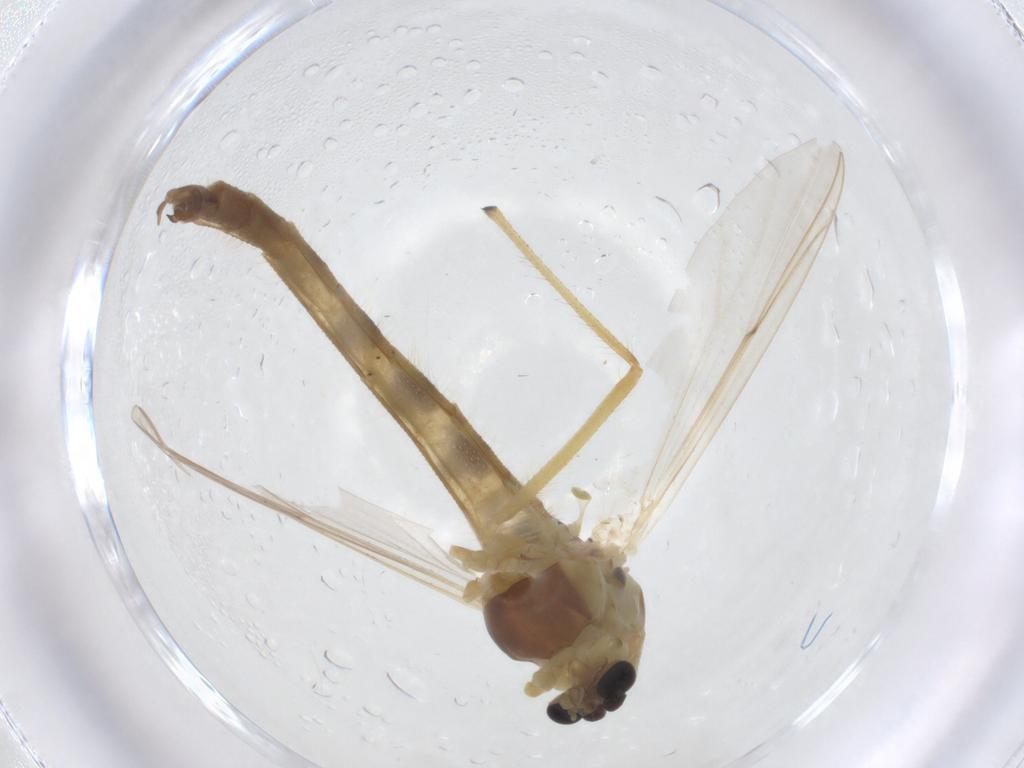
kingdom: Animalia
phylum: Arthropoda
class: Insecta
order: Diptera
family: Chironomidae
